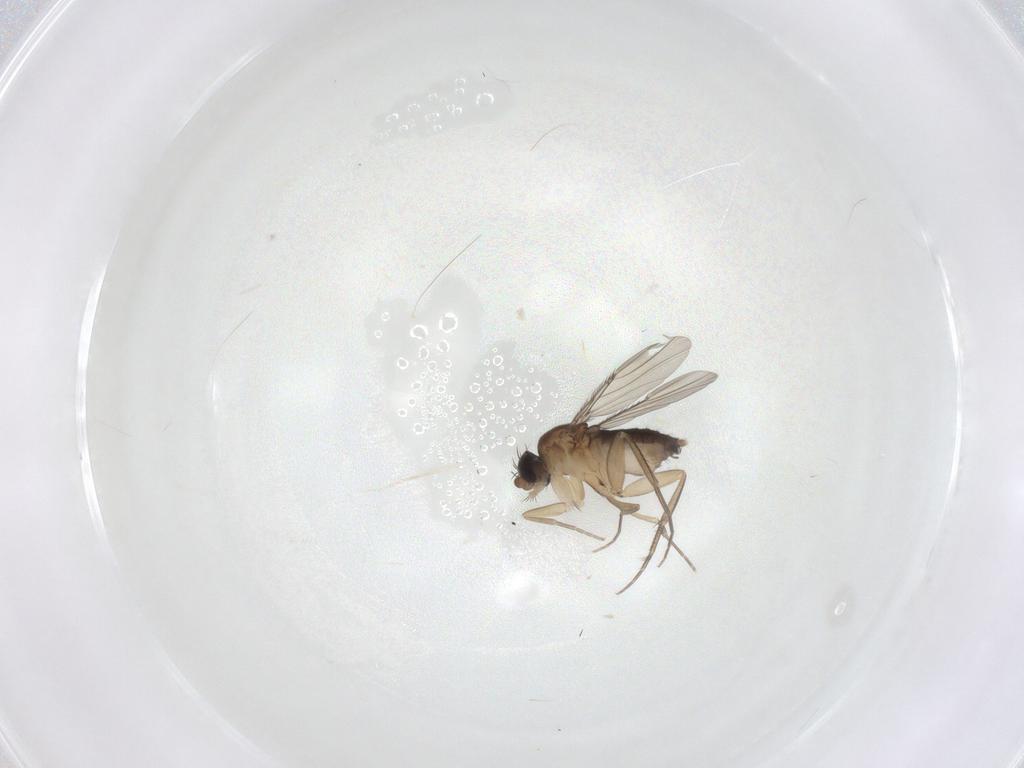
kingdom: Animalia
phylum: Arthropoda
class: Insecta
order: Diptera
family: Phoridae
